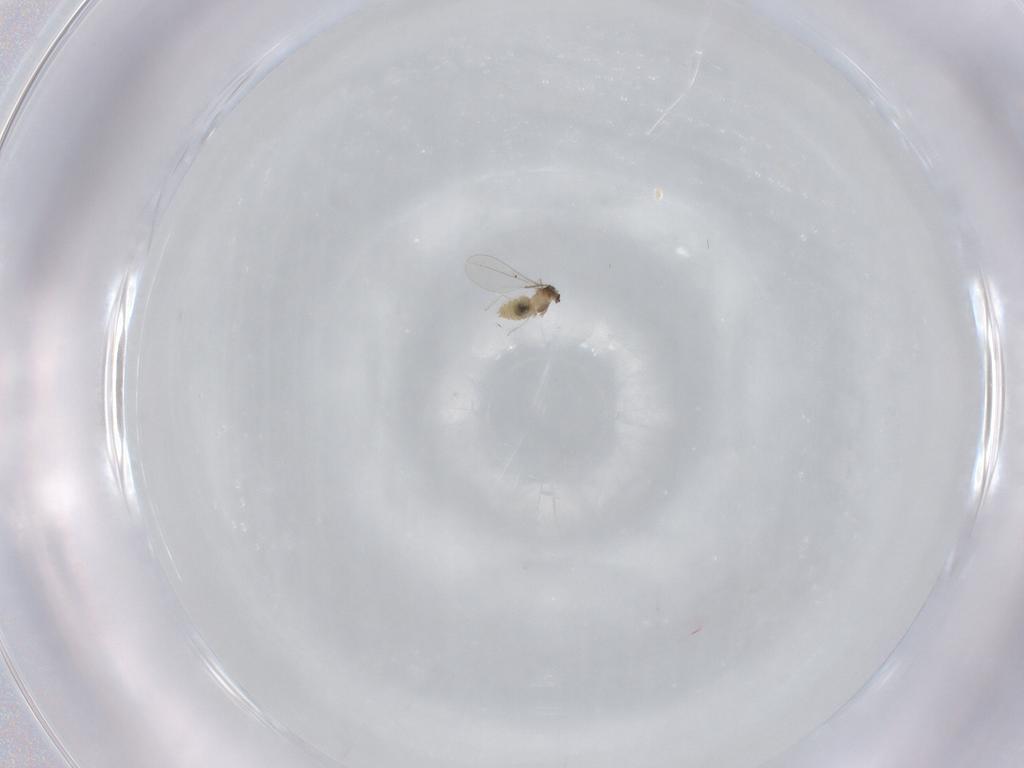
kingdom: Animalia
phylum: Arthropoda
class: Insecta
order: Diptera
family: Cecidomyiidae
